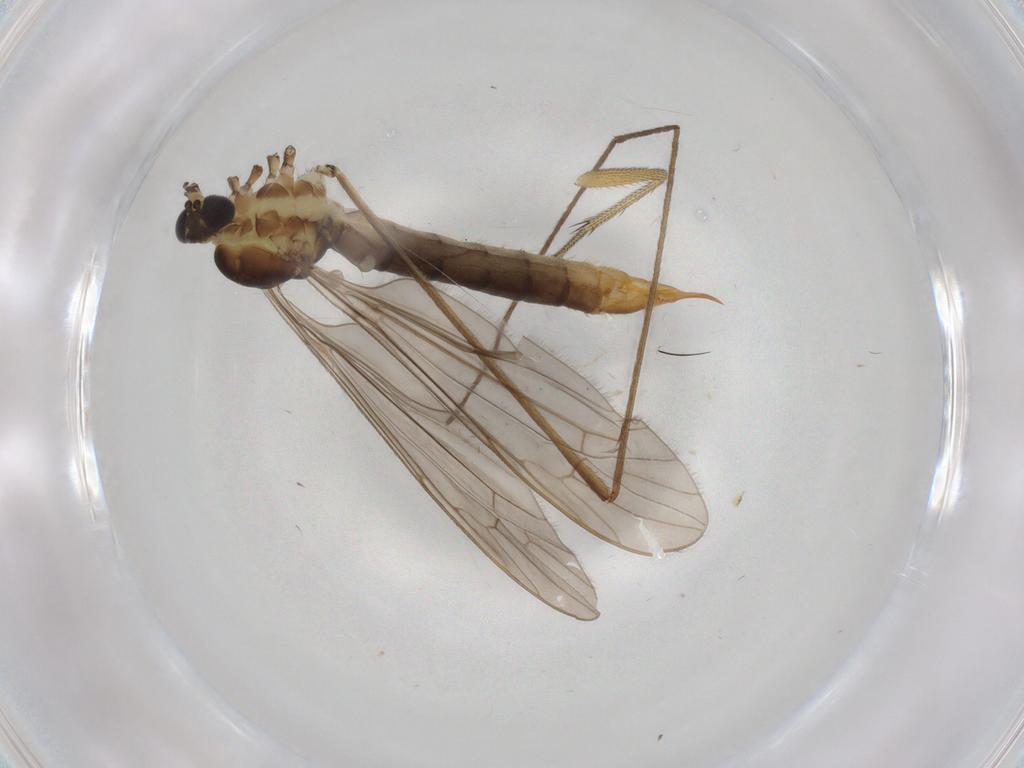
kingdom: Animalia
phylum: Arthropoda
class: Insecta
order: Diptera
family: Limoniidae
